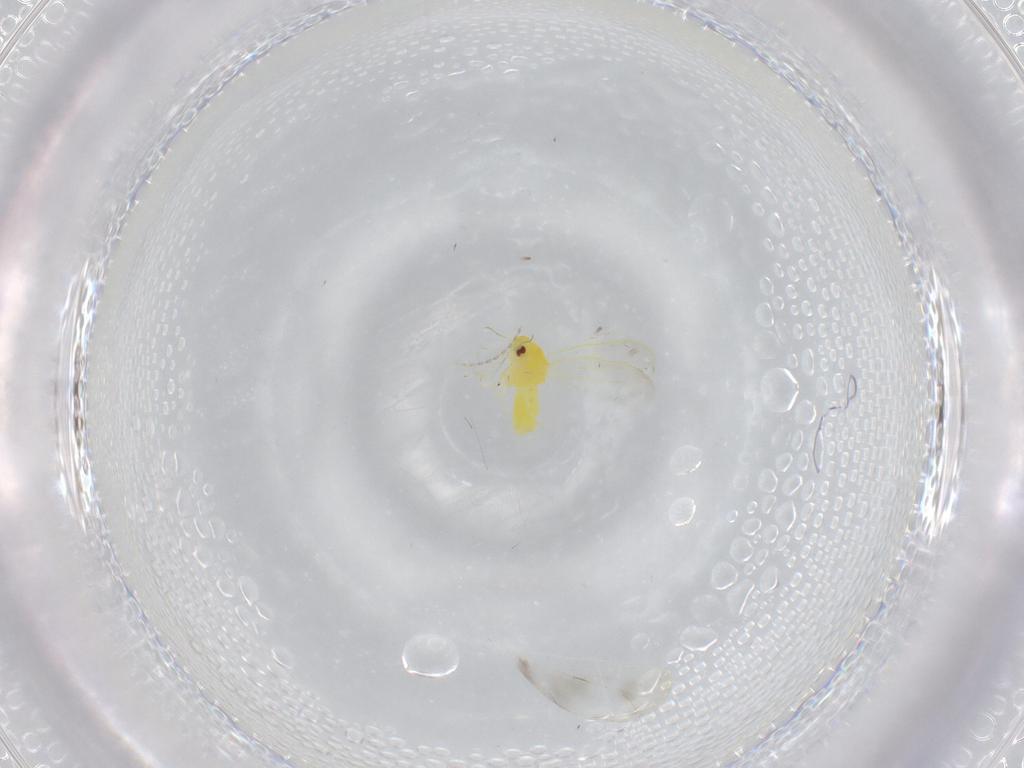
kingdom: Animalia
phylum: Arthropoda
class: Insecta
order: Hemiptera
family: Aleyrodidae
